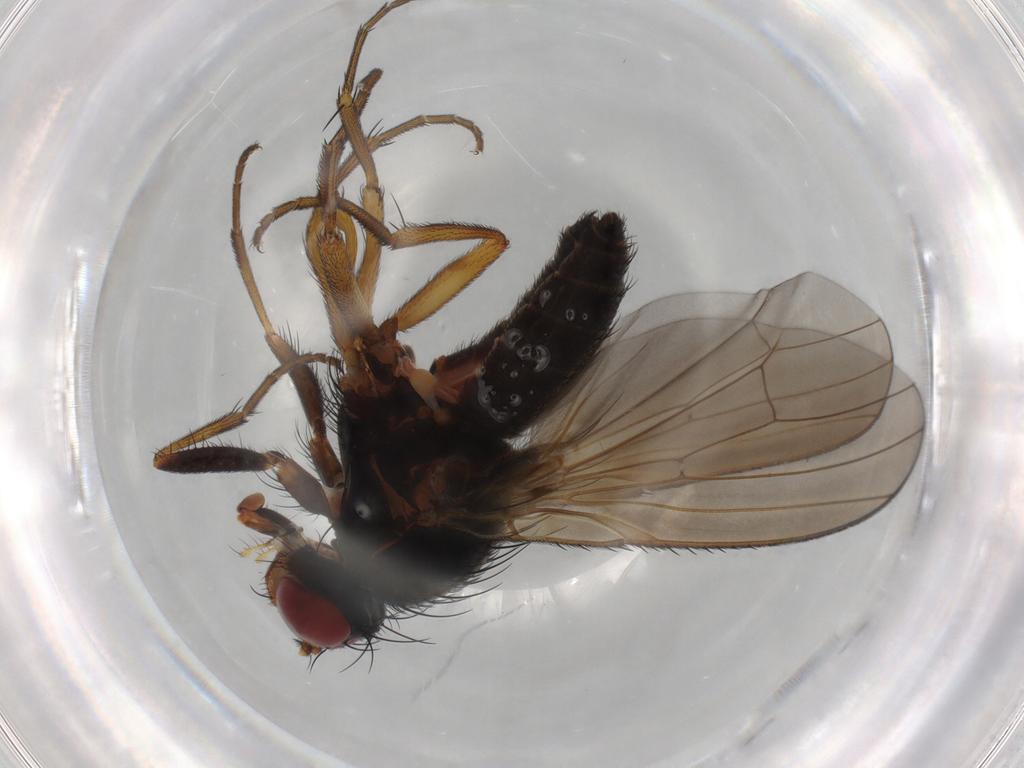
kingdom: Animalia
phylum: Arthropoda
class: Insecta
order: Diptera
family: Heleomyzidae
